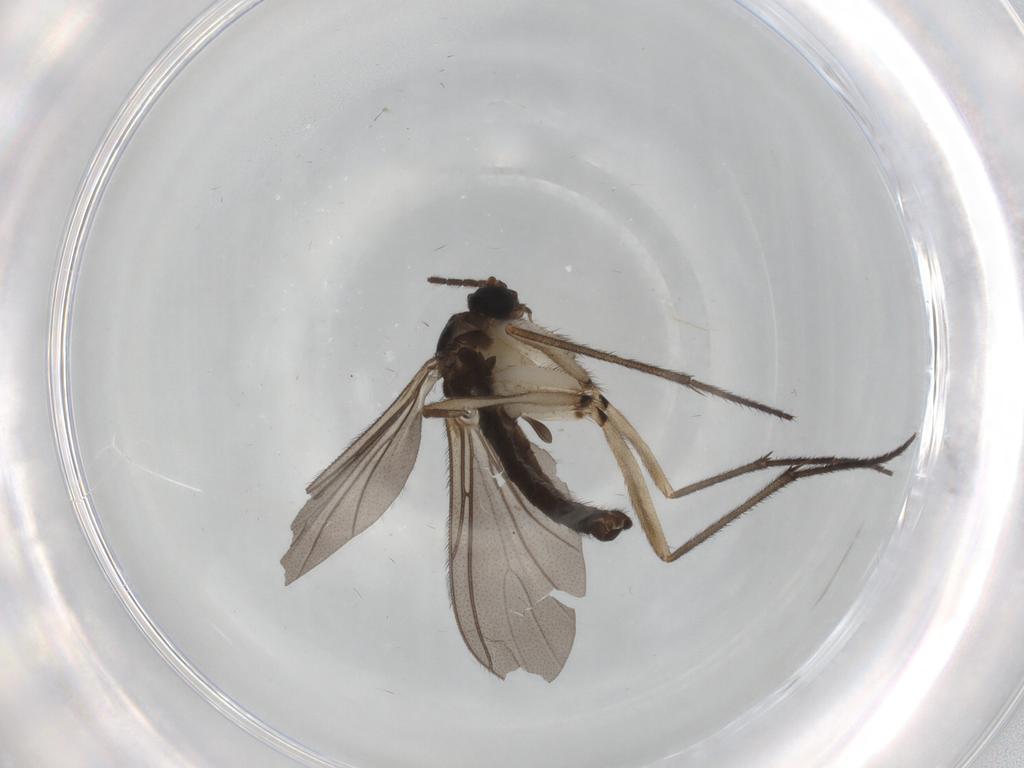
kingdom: Animalia
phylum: Arthropoda
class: Insecta
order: Diptera
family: Sciaridae
